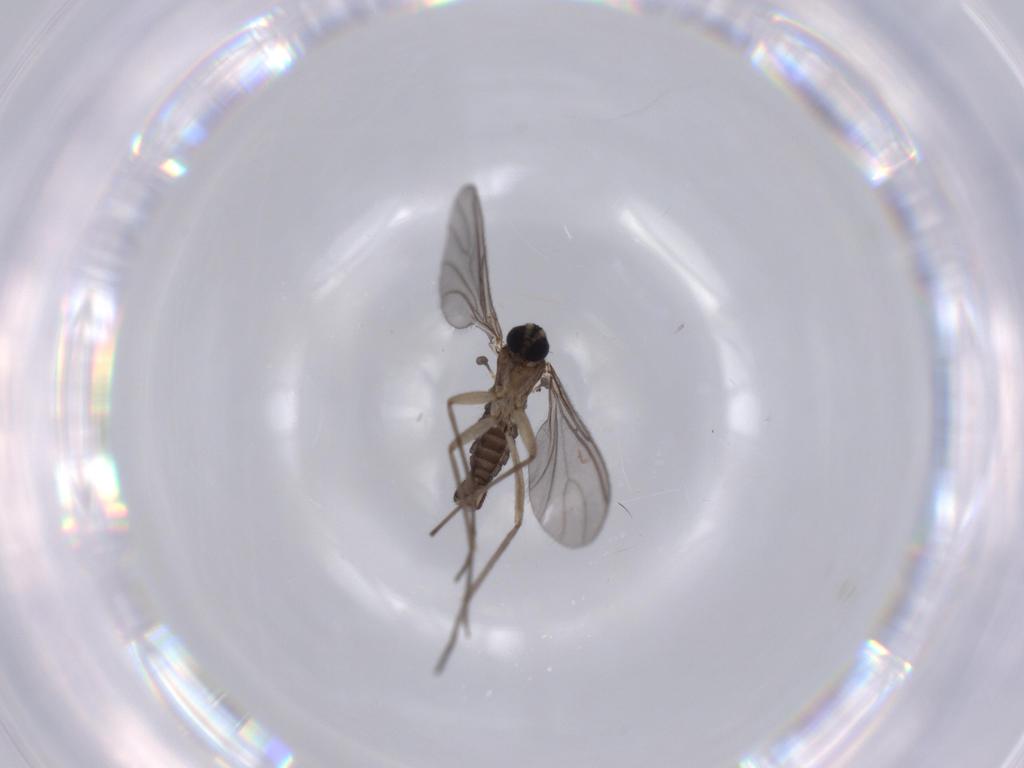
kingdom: Animalia
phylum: Arthropoda
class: Insecta
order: Diptera
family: Sciaridae
